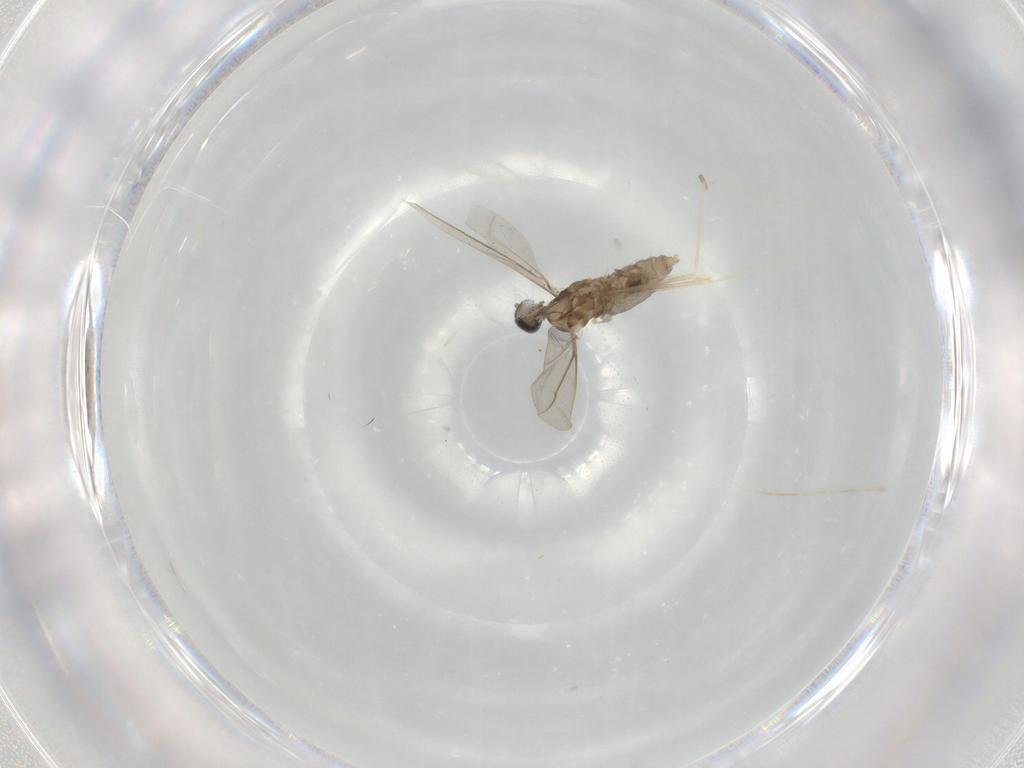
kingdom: Animalia
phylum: Arthropoda
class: Insecta
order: Diptera
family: Cecidomyiidae
